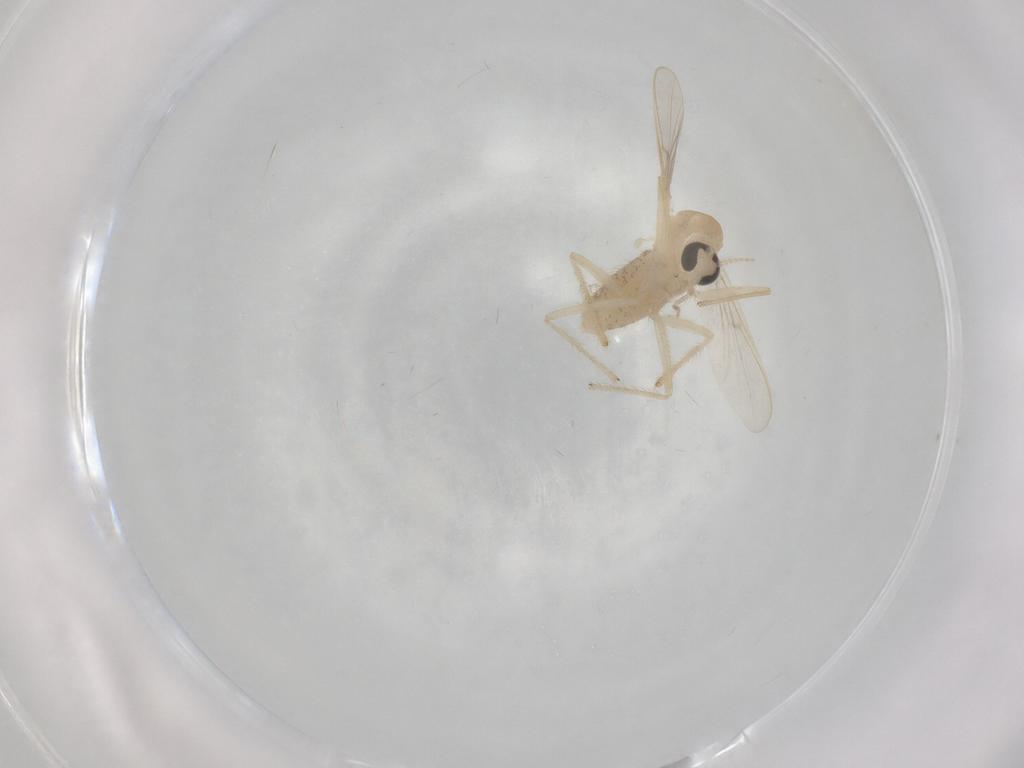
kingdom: Animalia
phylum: Arthropoda
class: Insecta
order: Diptera
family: Chironomidae
